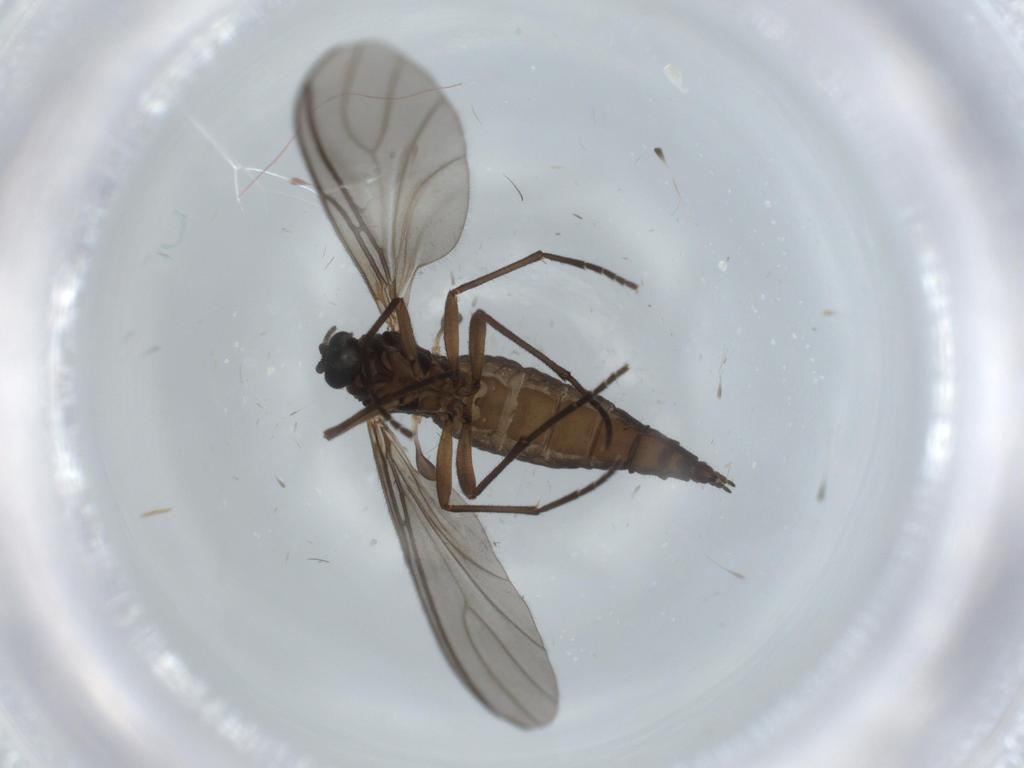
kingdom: Animalia
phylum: Arthropoda
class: Insecta
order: Diptera
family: Sciaridae
